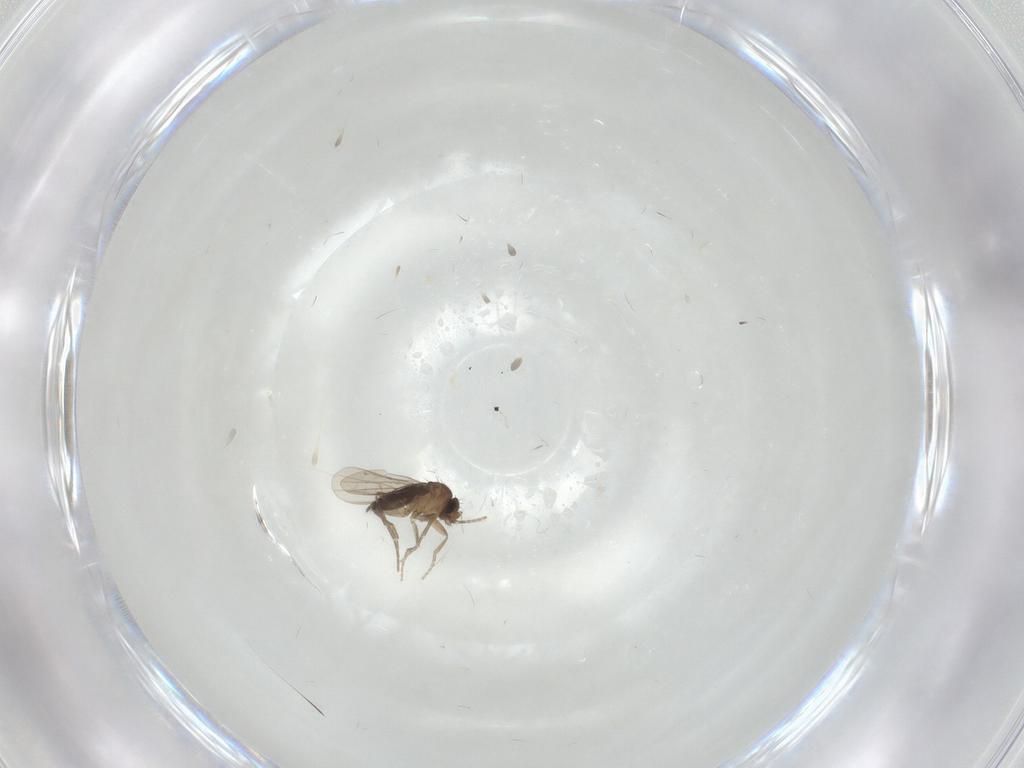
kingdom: Animalia
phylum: Arthropoda
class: Insecta
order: Diptera
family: Phoridae
